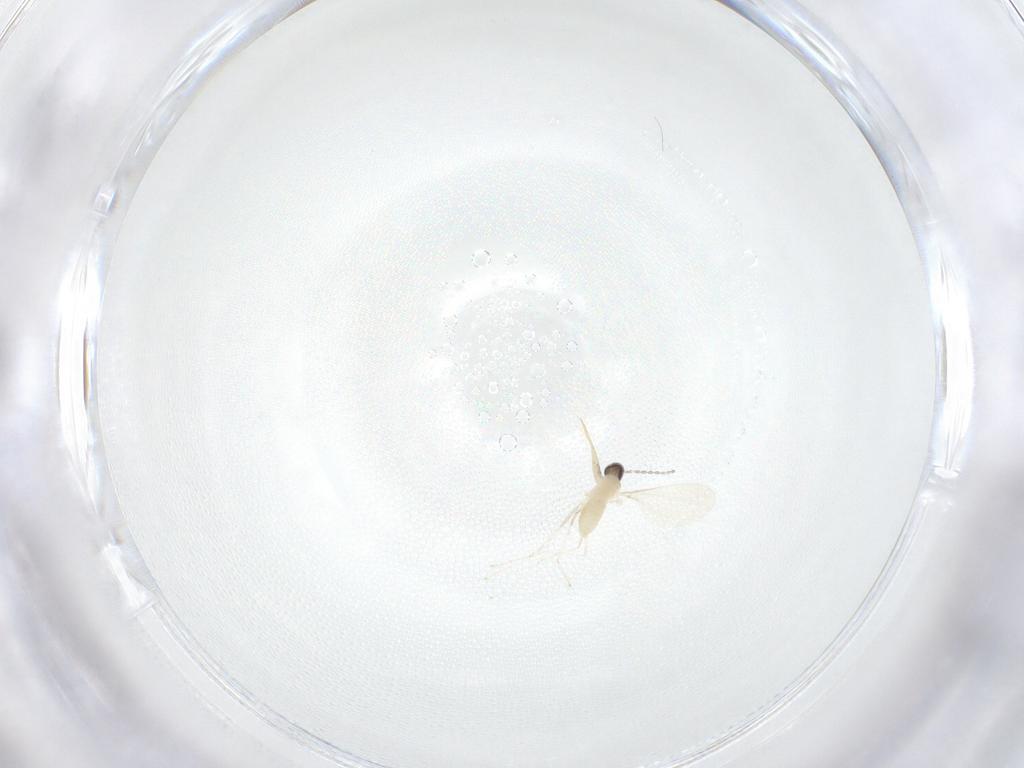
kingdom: Animalia
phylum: Arthropoda
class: Insecta
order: Diptera
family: Cecidomyiidae
